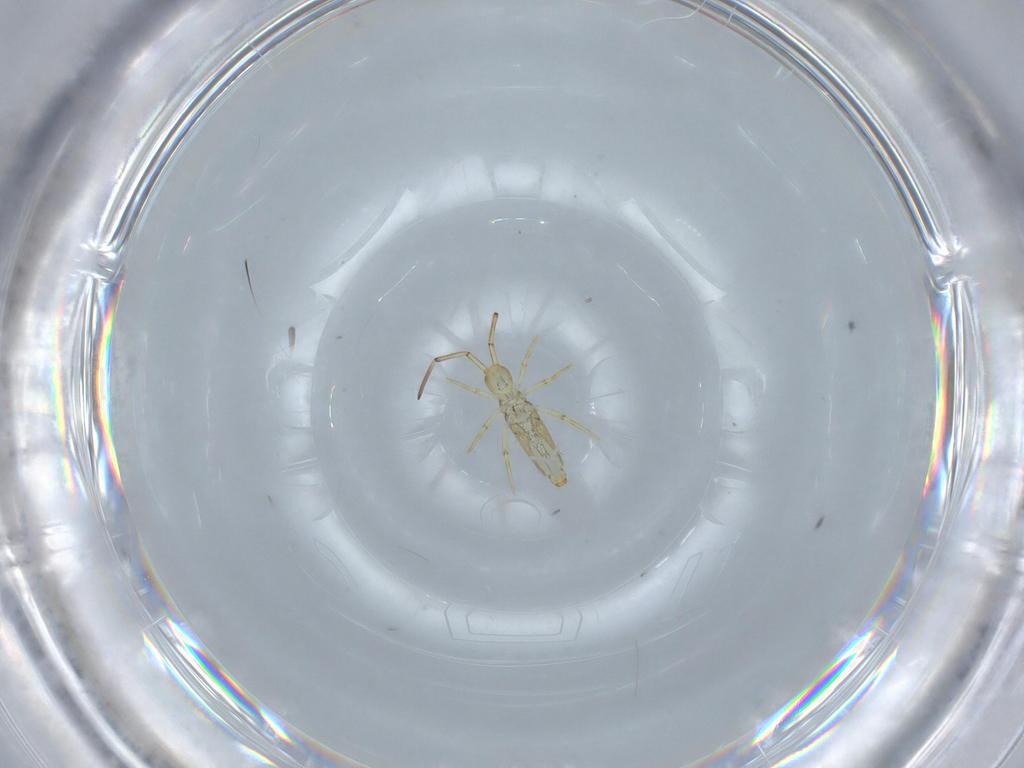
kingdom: Animalia
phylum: Arthropoda
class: Collembola
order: Entomobryomorpha
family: Paronellidae
